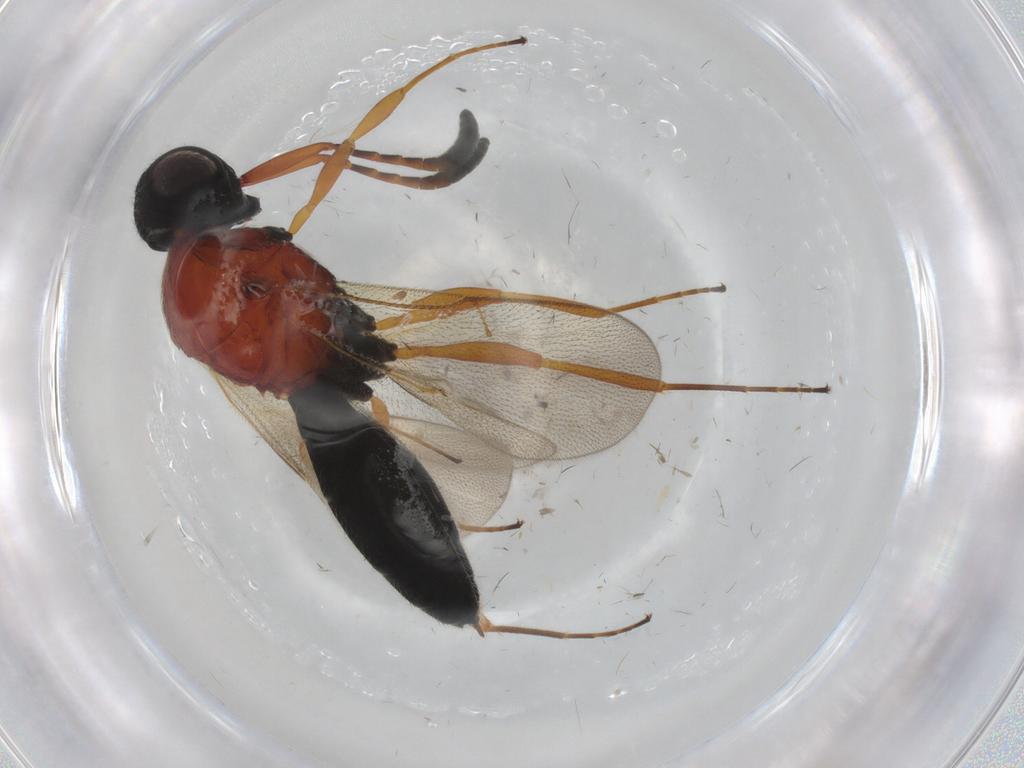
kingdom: Animalia
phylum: Arthropoda
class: Insecta
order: Hymenoptera
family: Scelionidae
